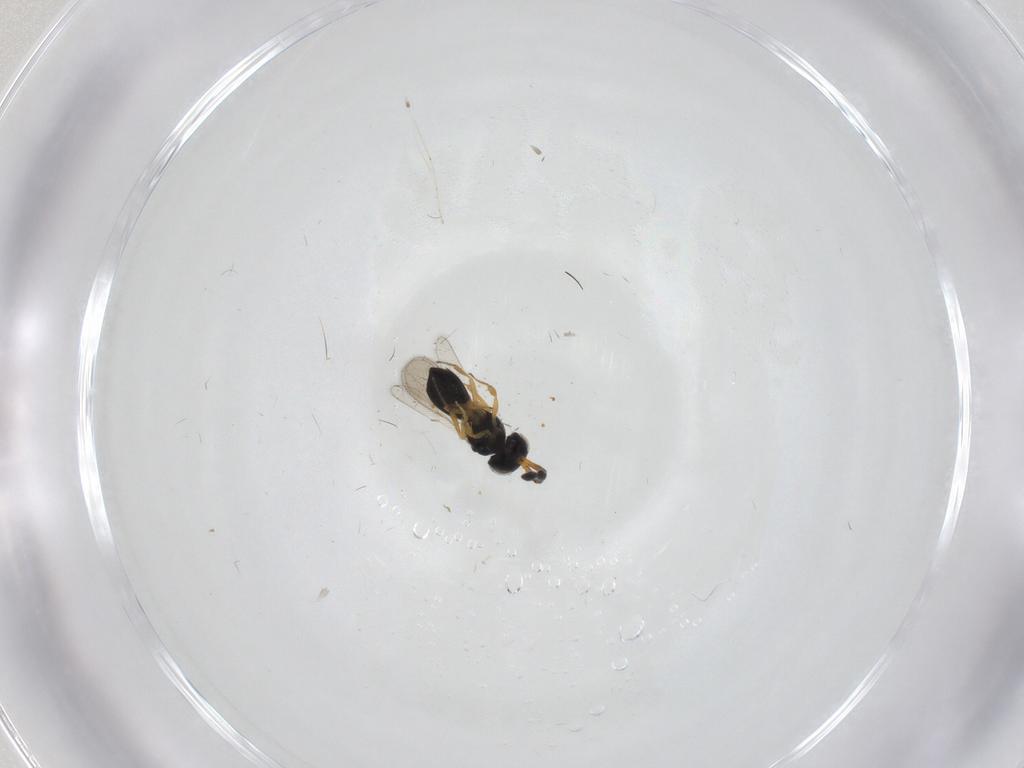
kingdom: Animalia
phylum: Arthropoda
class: Insecta
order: Hymenoptera
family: Scelionidae
